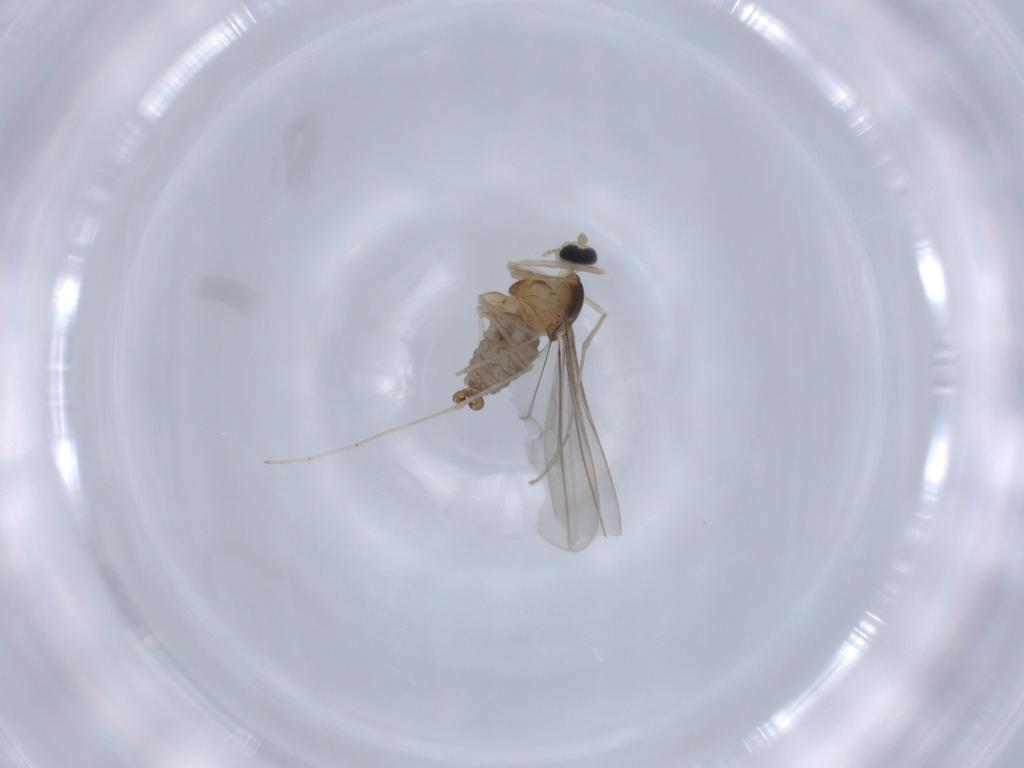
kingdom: Animalia
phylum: Arthropoda
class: Insecta
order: Diptera
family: Cecidomyiidae
